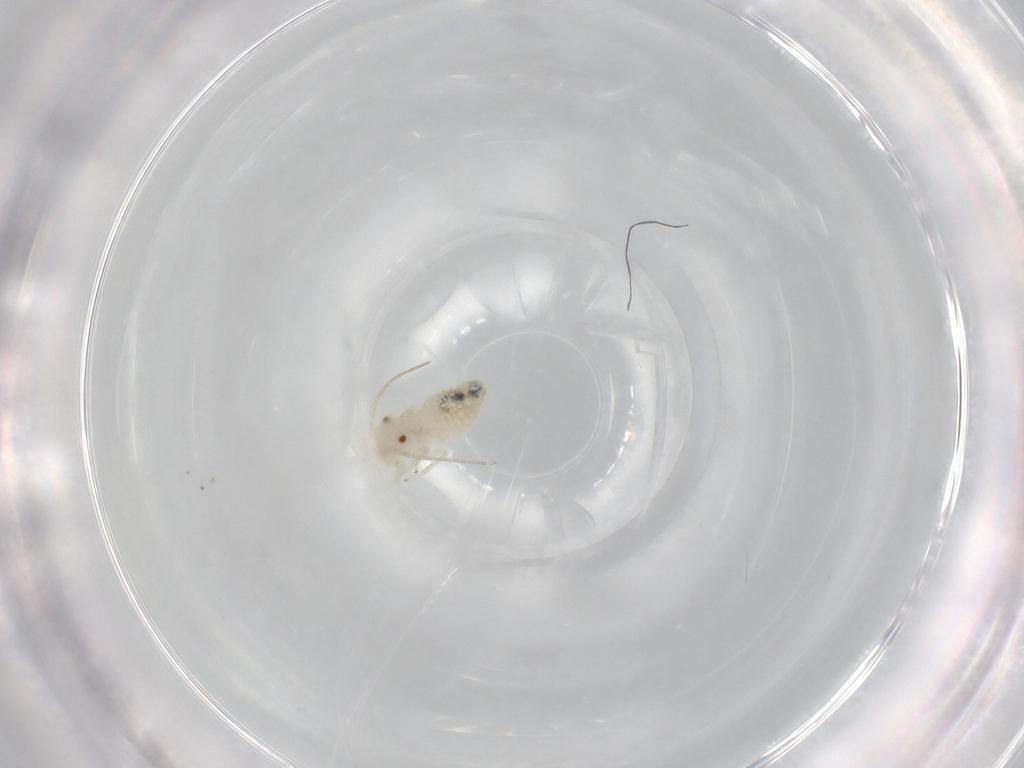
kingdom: Animalia
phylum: Arthropoda
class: Insecta
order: Psocodea
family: Caeciliusidae
